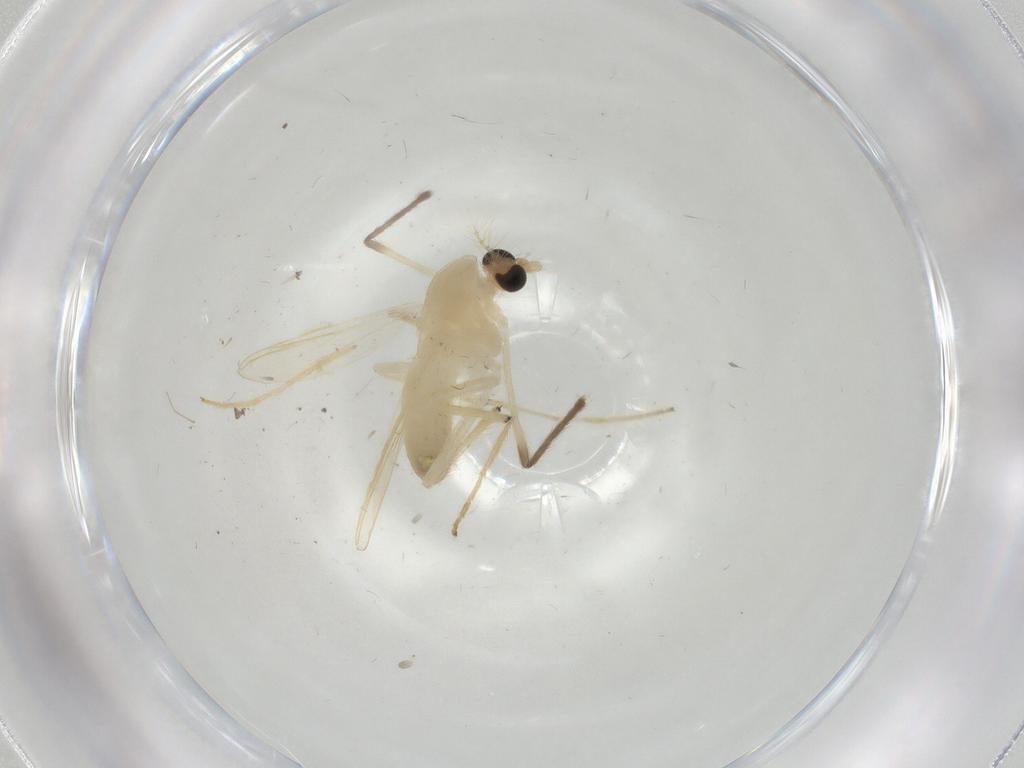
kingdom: Animalia
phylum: Arthropoda
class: Insecta
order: Diptera
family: Chironomidae
